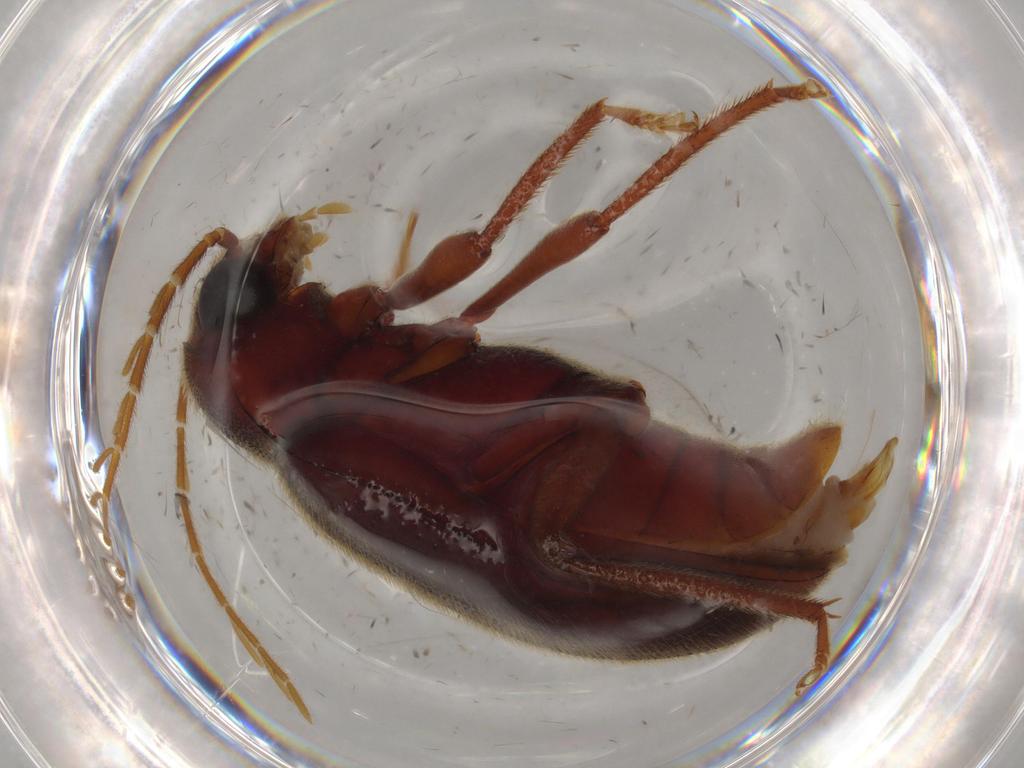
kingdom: Animalia
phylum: Arthropoda
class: Insecta
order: Coleoptera
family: Ptilodactylidae
